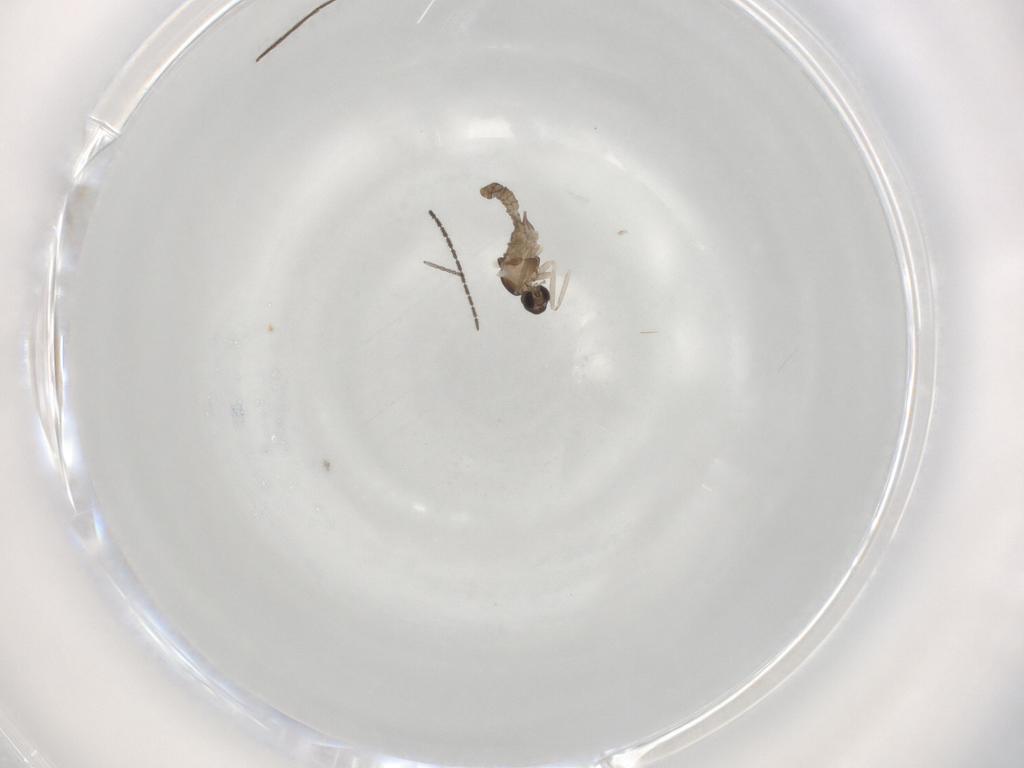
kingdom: Animalia
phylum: Arthropoda
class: Insecta
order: Diptera
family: Cecidomyiidae
